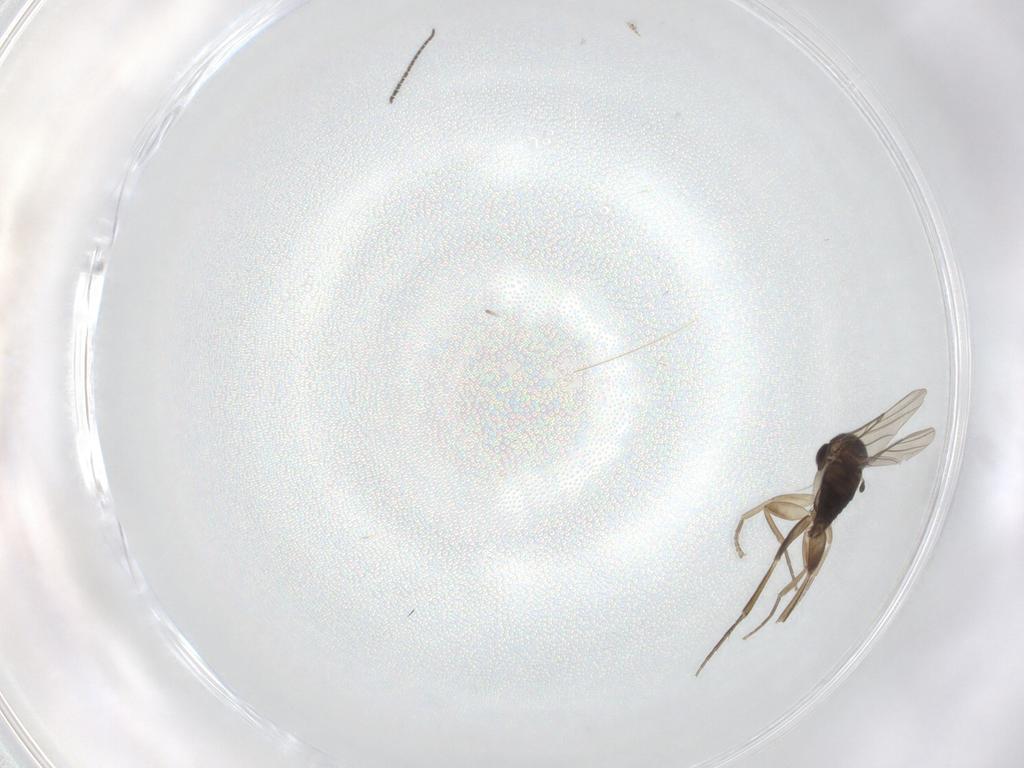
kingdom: Animalia
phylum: Arthropoda
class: Insecta
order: Diptera
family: Phoridae
